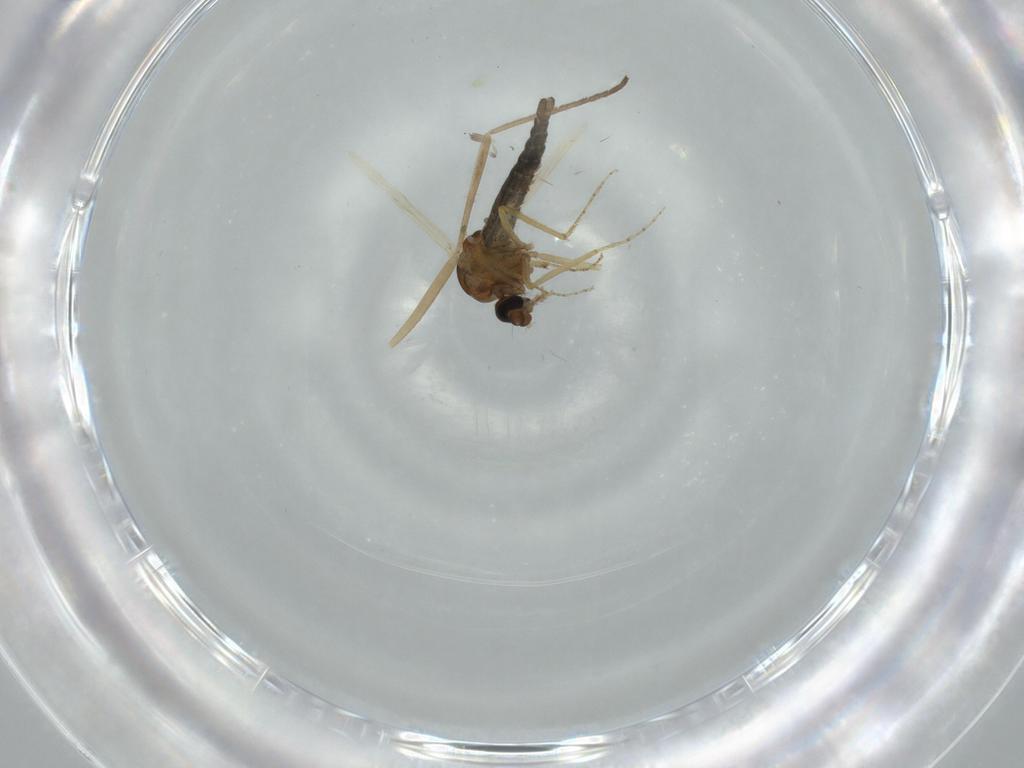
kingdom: Animalia
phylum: Arthropoda
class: Insecta
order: Diptera
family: Ceratopogonidae
